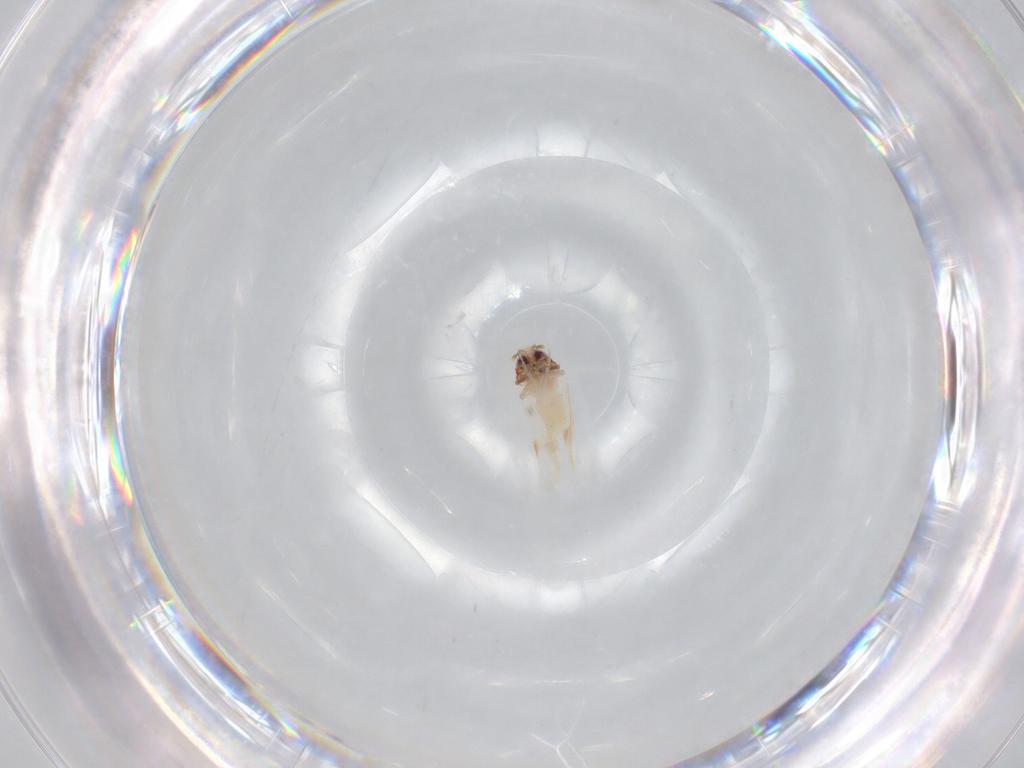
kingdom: Animalia
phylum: Arthropoda
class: Insecta
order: Hemiptera
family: Aleyrodidae
